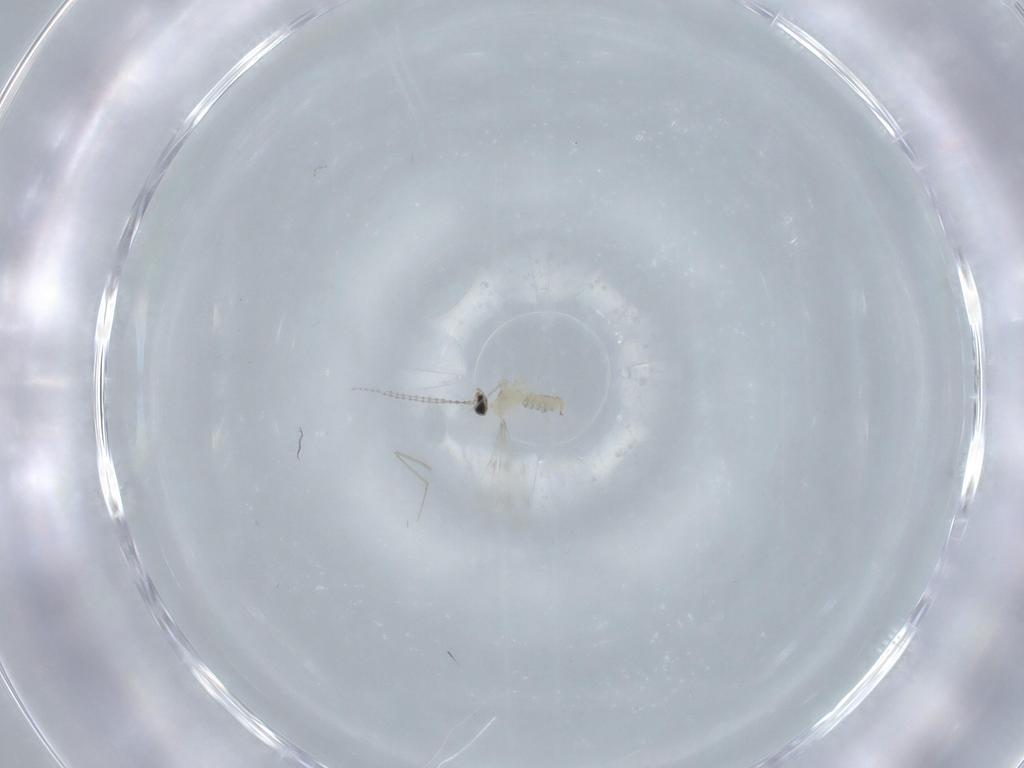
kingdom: Animalia
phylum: Arthropoda
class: Insecta
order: Diptera
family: Cecidomyiidae
